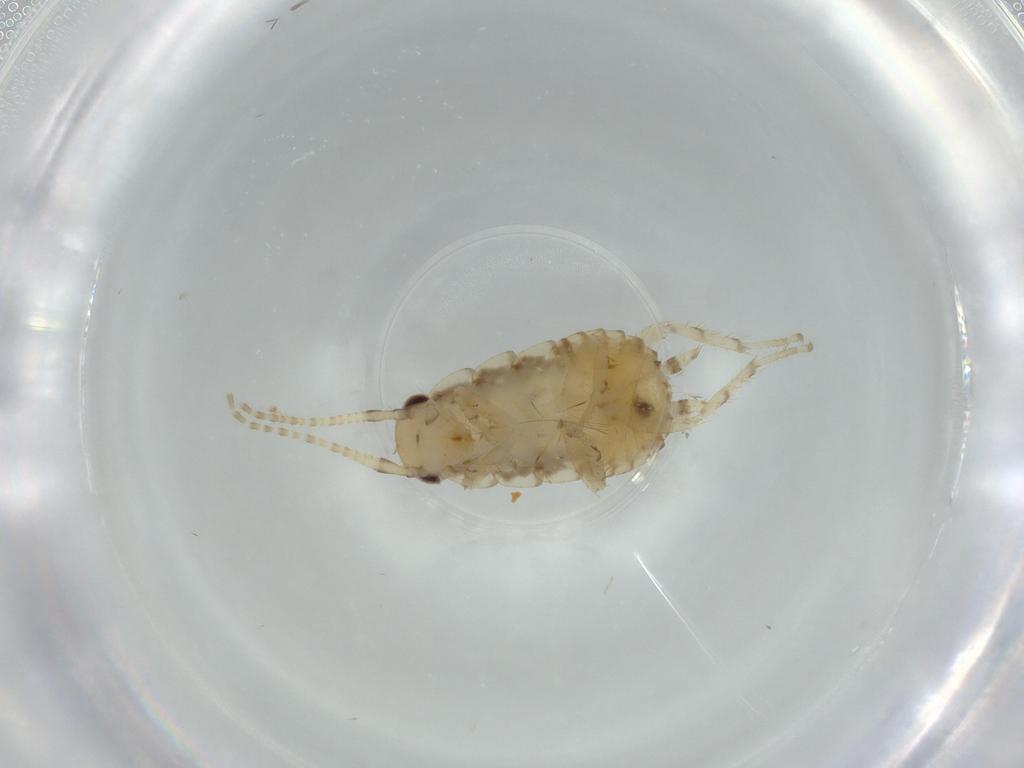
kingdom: Animalia
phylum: Arthropoda
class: Insecta
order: Blattodea
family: Ectobiidae
